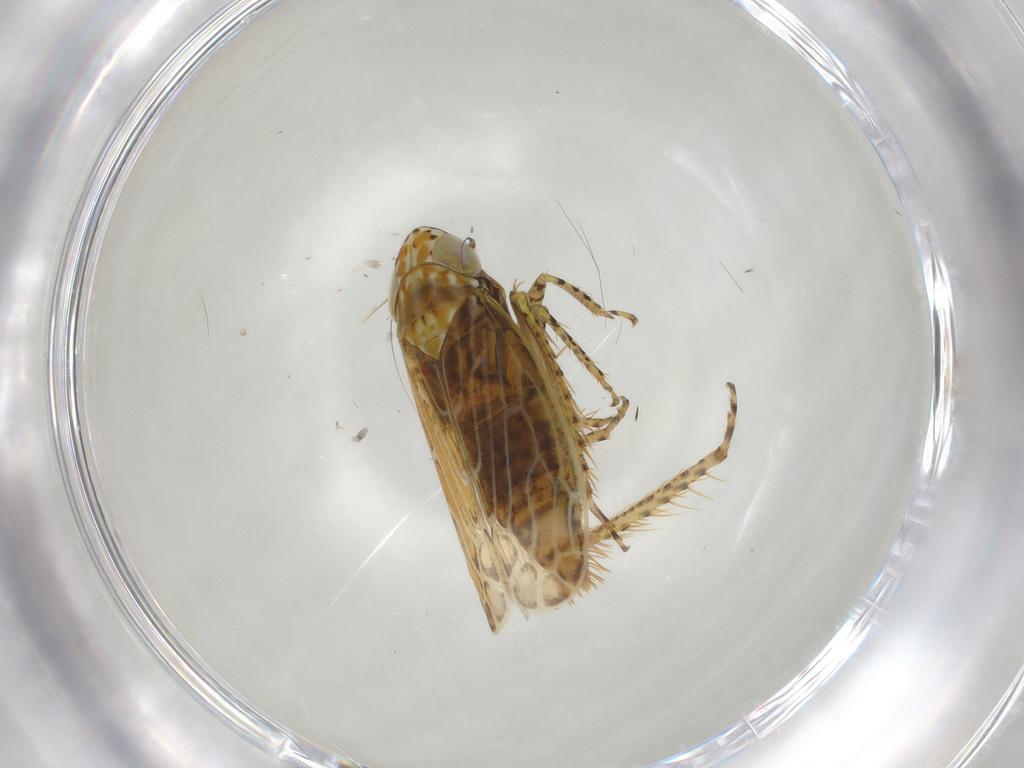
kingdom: Animalia
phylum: Arthropoda
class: Insecta
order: Hemiptera
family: Cicadellidae
